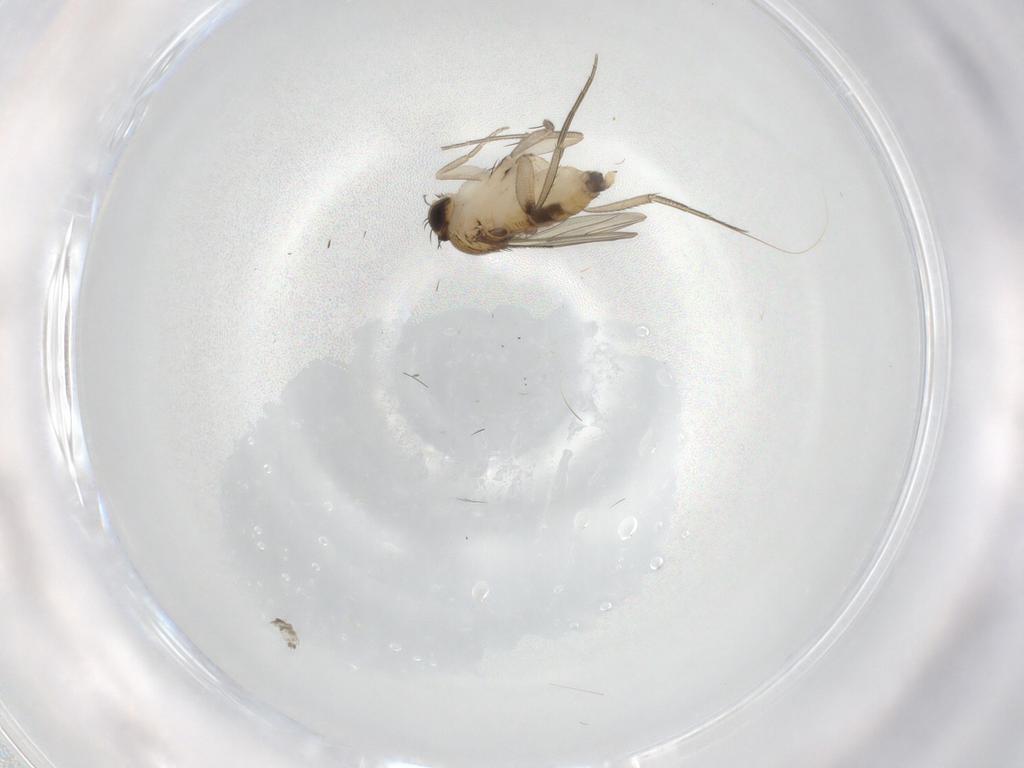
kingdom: Animalia
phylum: Arthropoda
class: Insecta
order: Diptera
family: Phoridae
